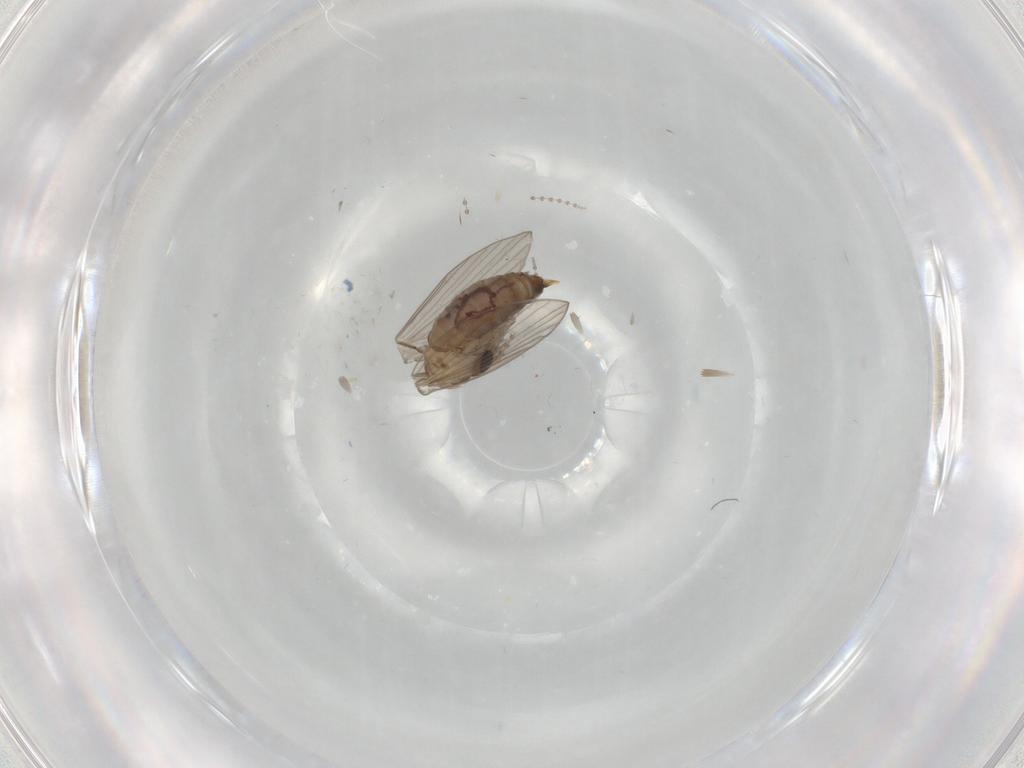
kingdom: Animalia
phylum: Arthropoda
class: Insecta
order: Diptera
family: Psychodidae
